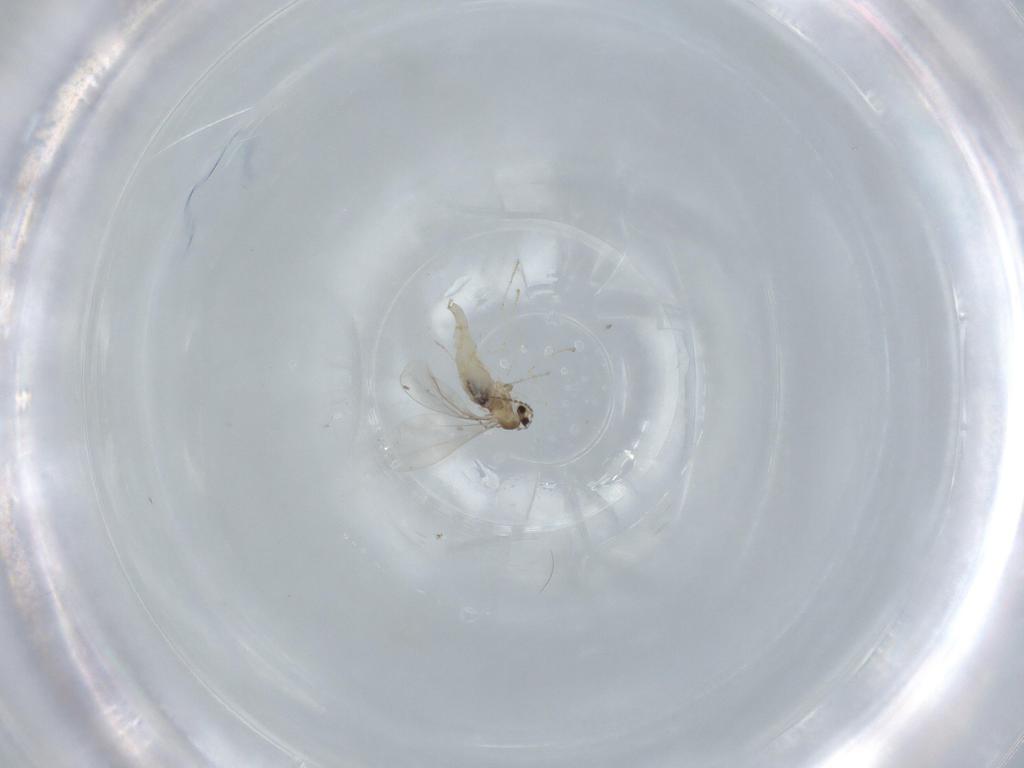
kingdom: Animalia
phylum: Arthropoda
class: Insecta
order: Diptera
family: Cecidomyiidae
